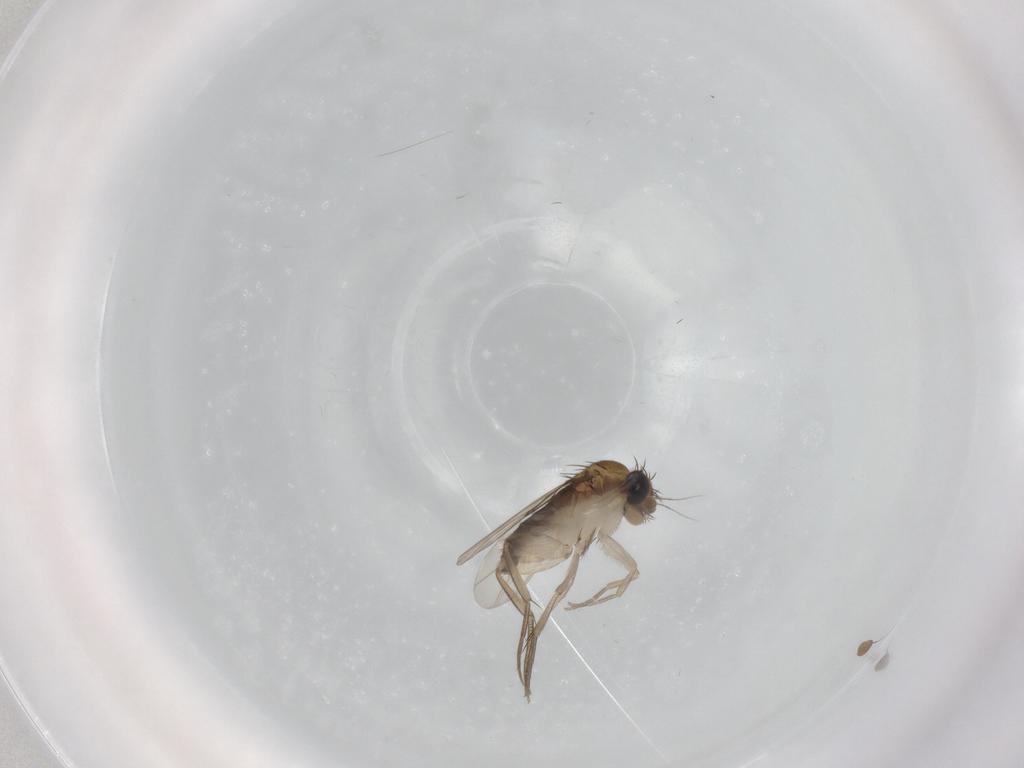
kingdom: Animalia
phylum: Arthropoda
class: Insecta
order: Diptera
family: Phoridae
